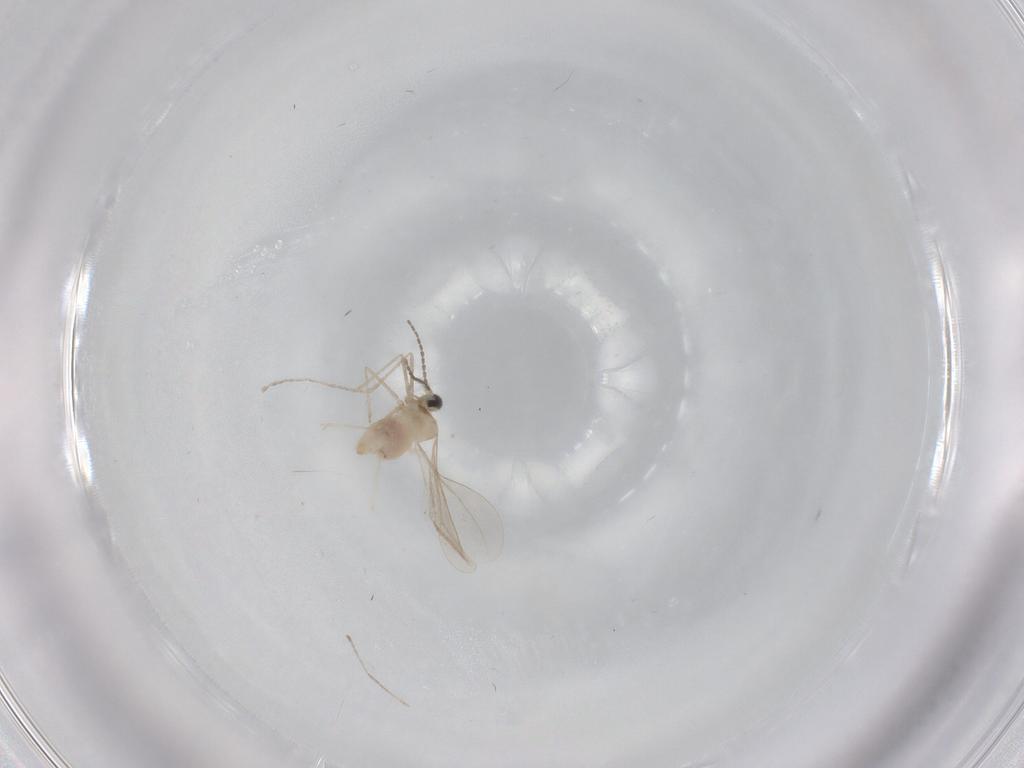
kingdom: Animalia
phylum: Arthropoda
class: Insecta
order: Diptera
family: Cecidomyiidae
